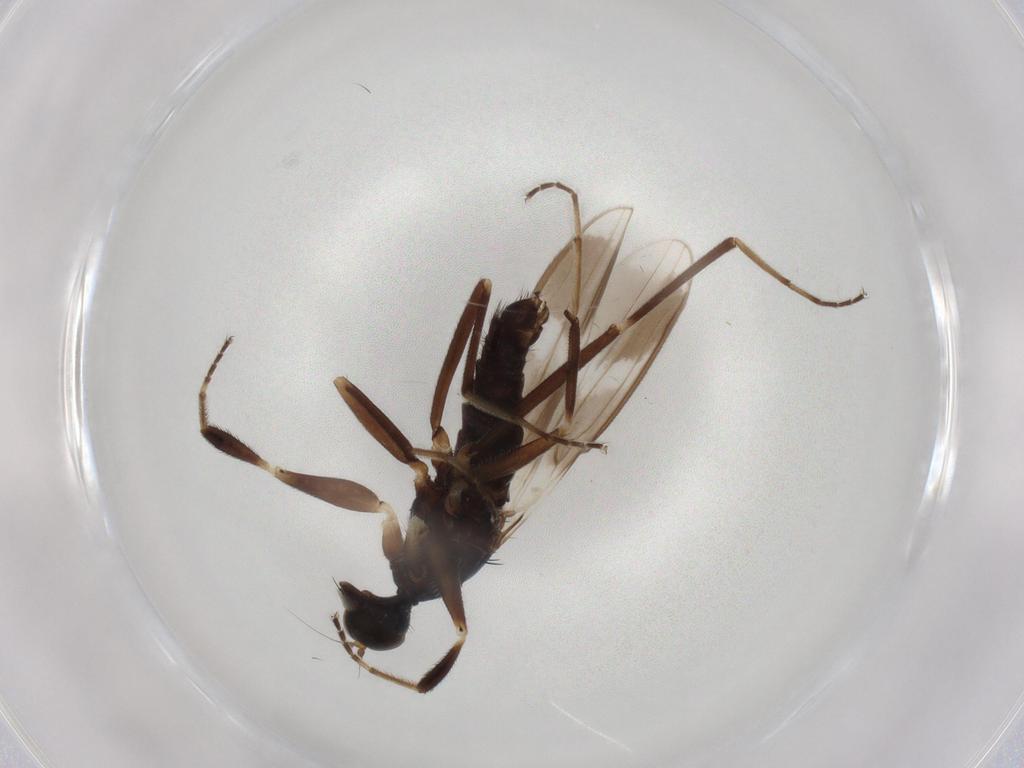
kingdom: Animalia
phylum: Arthropoda
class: Insecta
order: Diptera
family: Hybotidae
